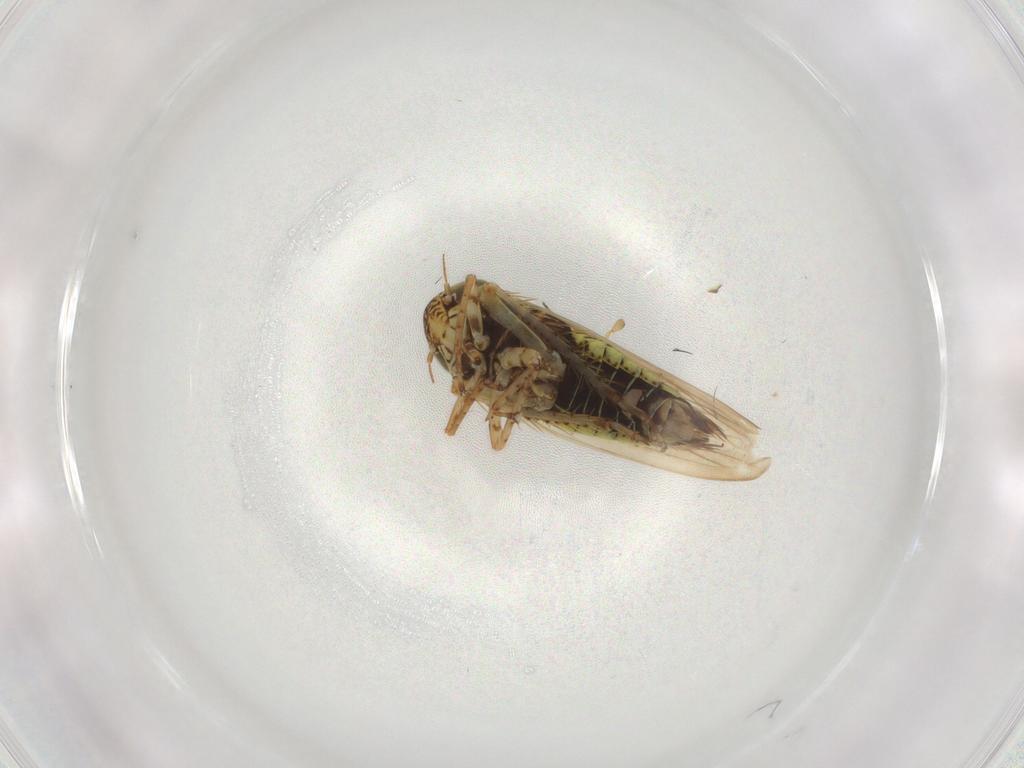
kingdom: Animalia
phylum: Arthropoda
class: Insecta
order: Hemiptera
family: Cicadellidae
